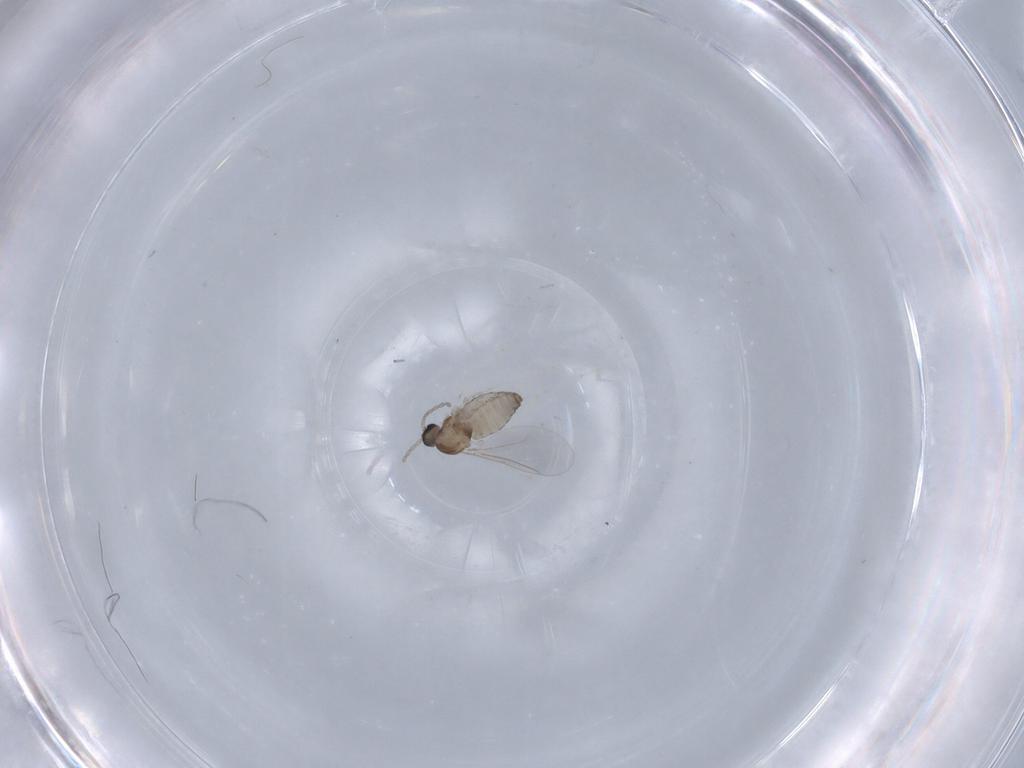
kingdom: Animalia
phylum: Arthropoda
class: Insecta
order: Diptera
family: Cecidomyiidae
